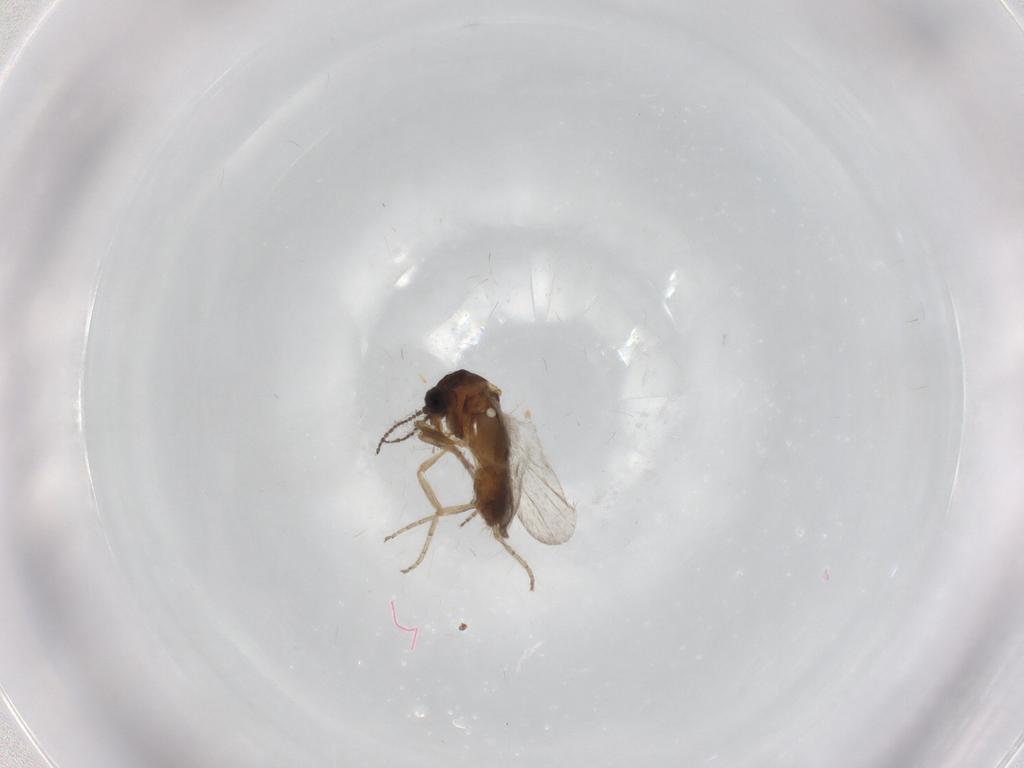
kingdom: Animalia
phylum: Arthropoda
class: Insecta
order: Diptera
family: Ceratopogonidae
